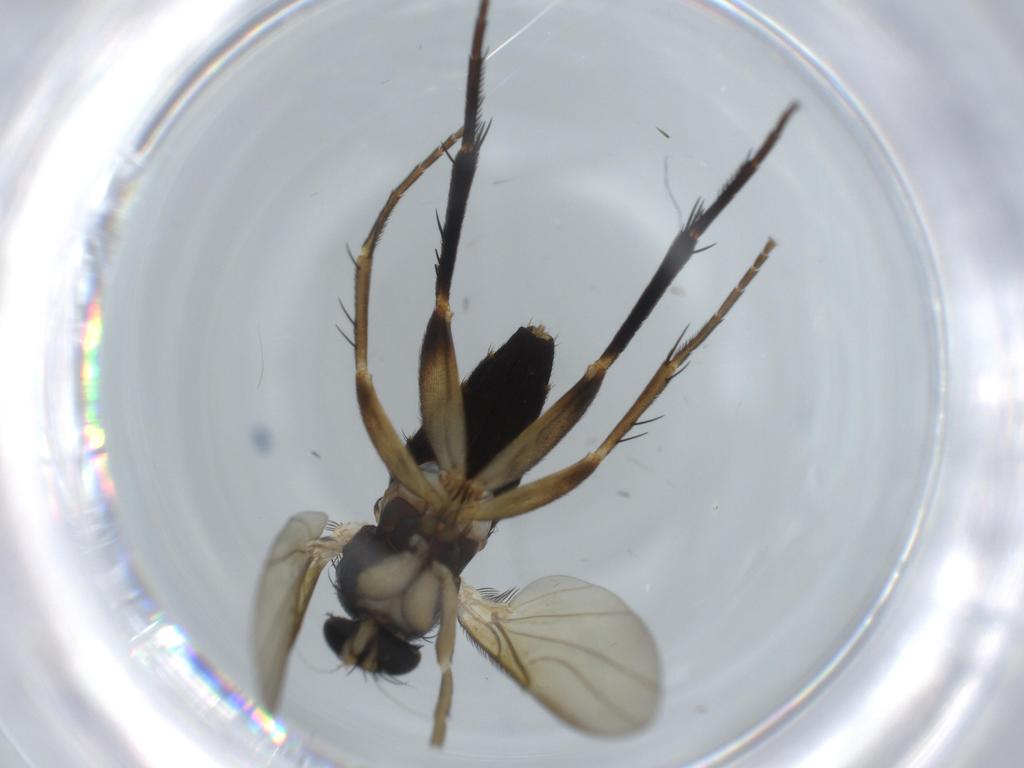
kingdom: Animalia
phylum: Arthropoda
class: Insecta
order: Diptera
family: Phoridae
